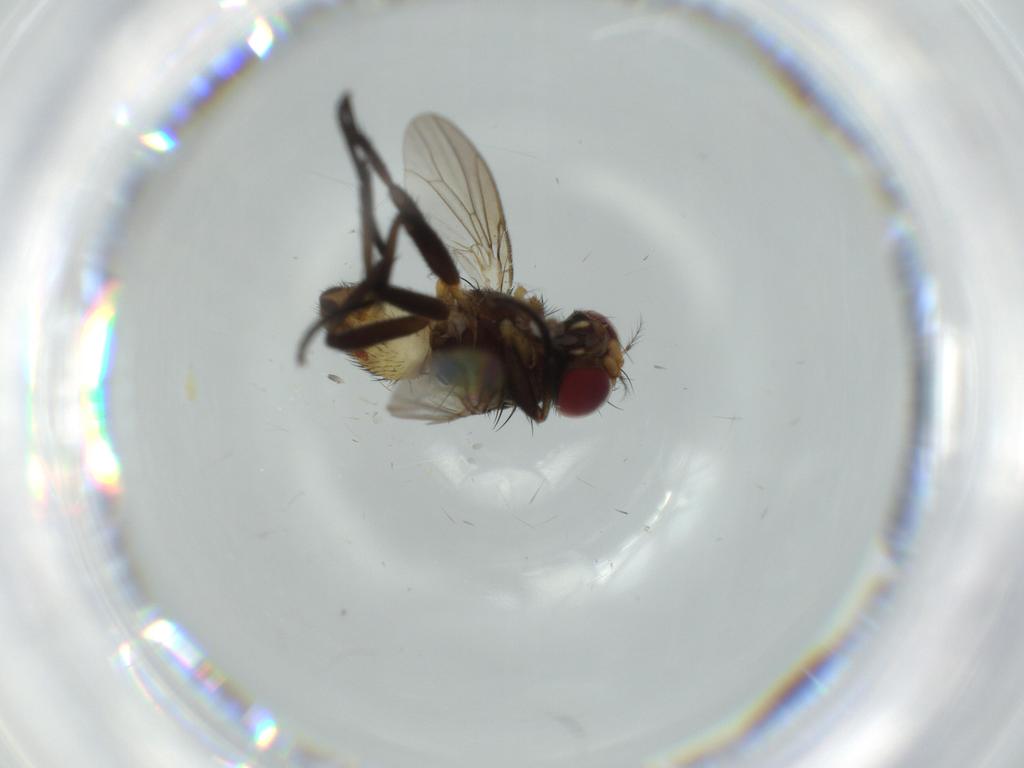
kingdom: Animalia
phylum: Arthropoda
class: Insecta
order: Diptera
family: Anthomyiidae
